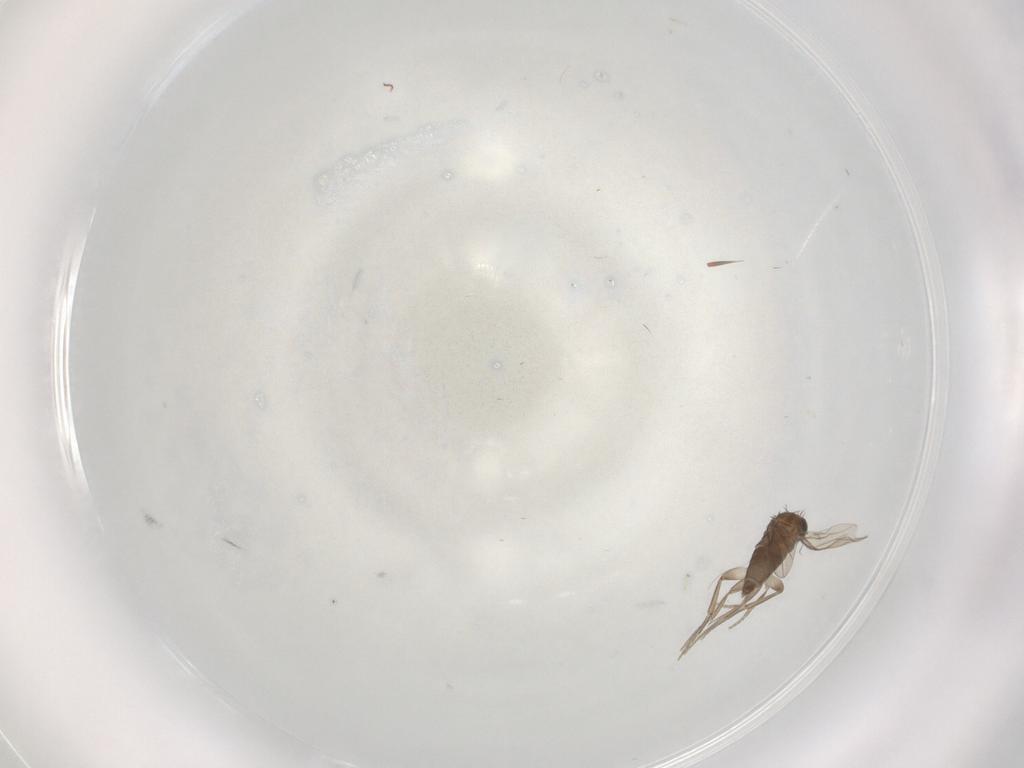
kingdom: Animalia
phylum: Arthropoda
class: Insecta
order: Diptera
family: Phoridae
